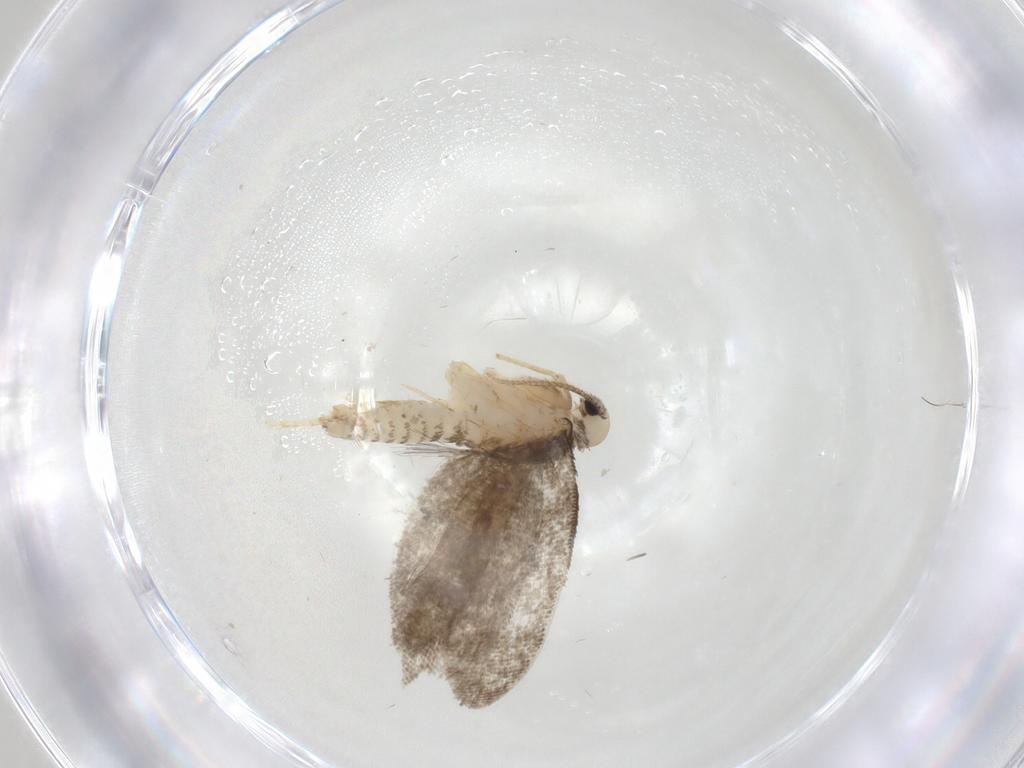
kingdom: Animalia
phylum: Arthropoda
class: Insecta
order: Lepidoptera
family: Psychidae
